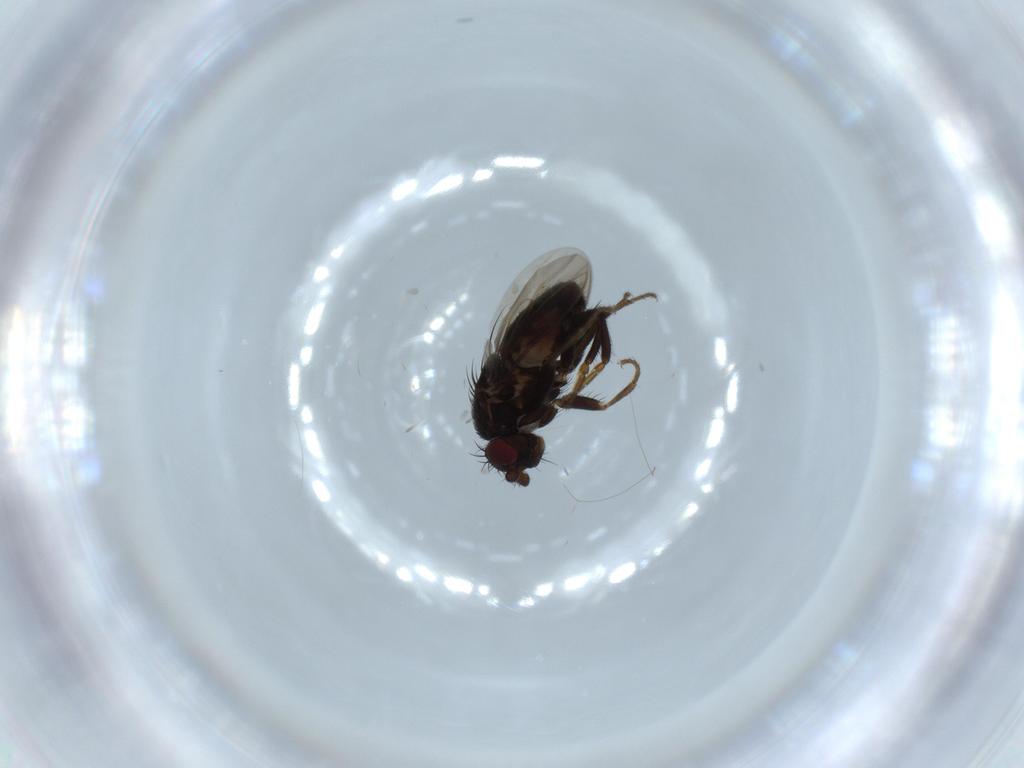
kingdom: Animalia
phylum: Arthropoda
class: Insecta
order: Diptera
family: Sphaeroceridae
